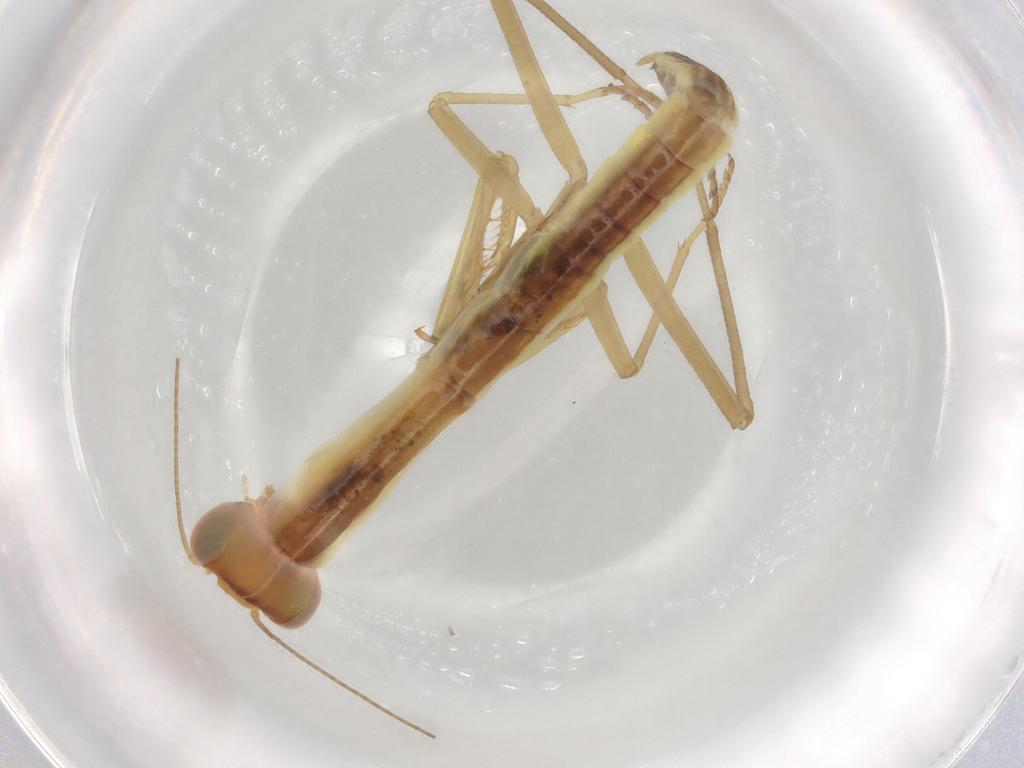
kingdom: Animalia
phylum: Arthropoda
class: Insecta
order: Mantodea
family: Mantidae
